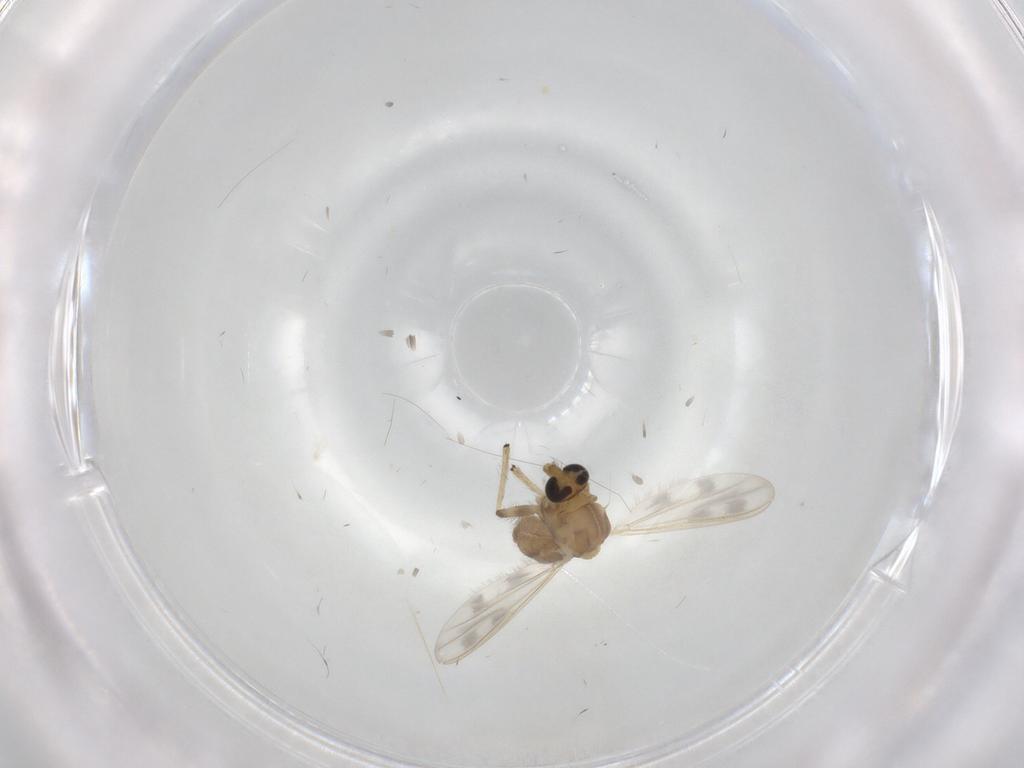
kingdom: Animalia
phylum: Arthropoda
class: Insecta
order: Diptera
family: Chironomidae
